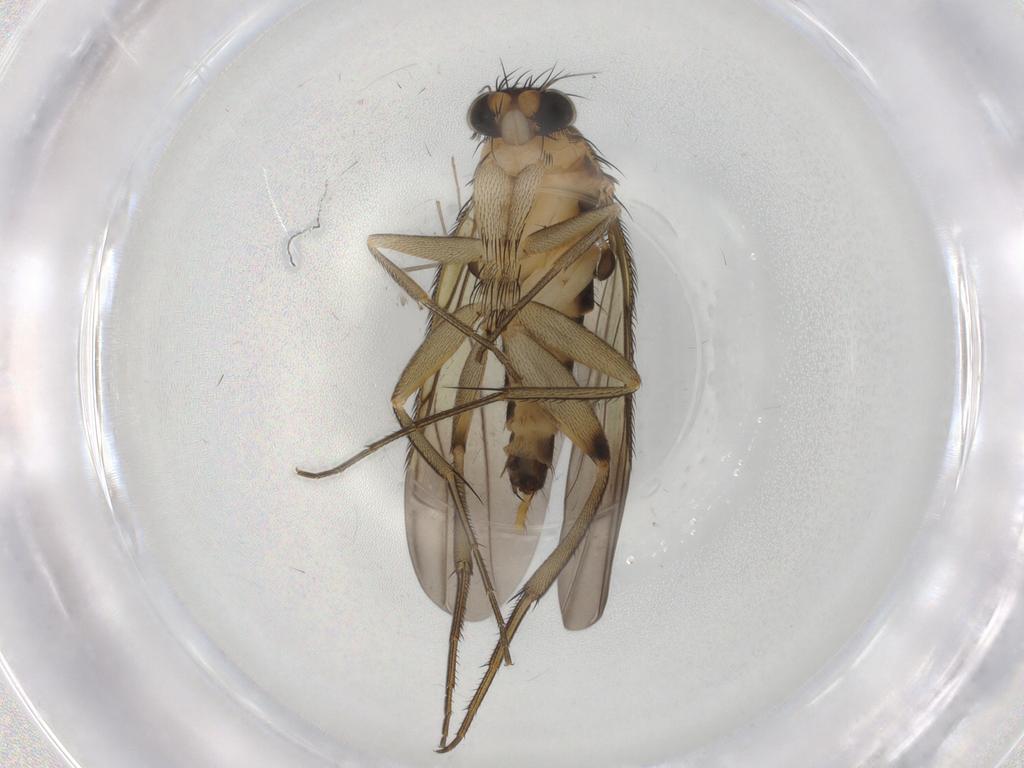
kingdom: Animalia
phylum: Arthropoda
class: Insecta
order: Diptera
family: Phoridae
